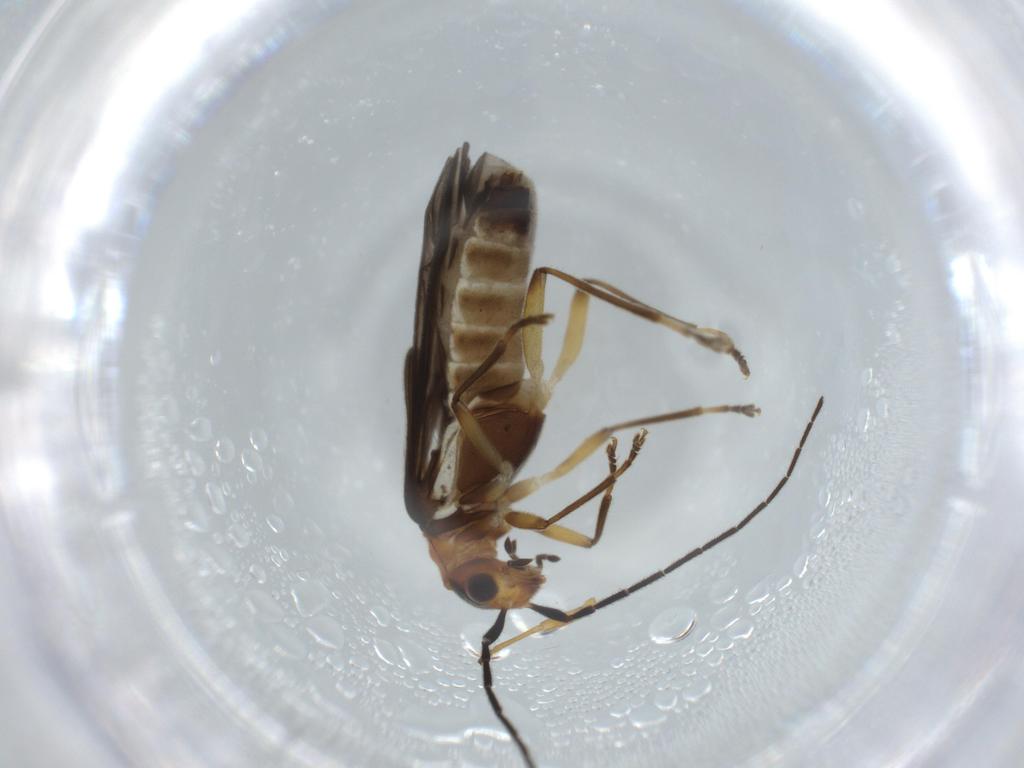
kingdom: Animalia
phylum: Arthropoda
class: Insecta
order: Coleoptera
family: Cantharidae
